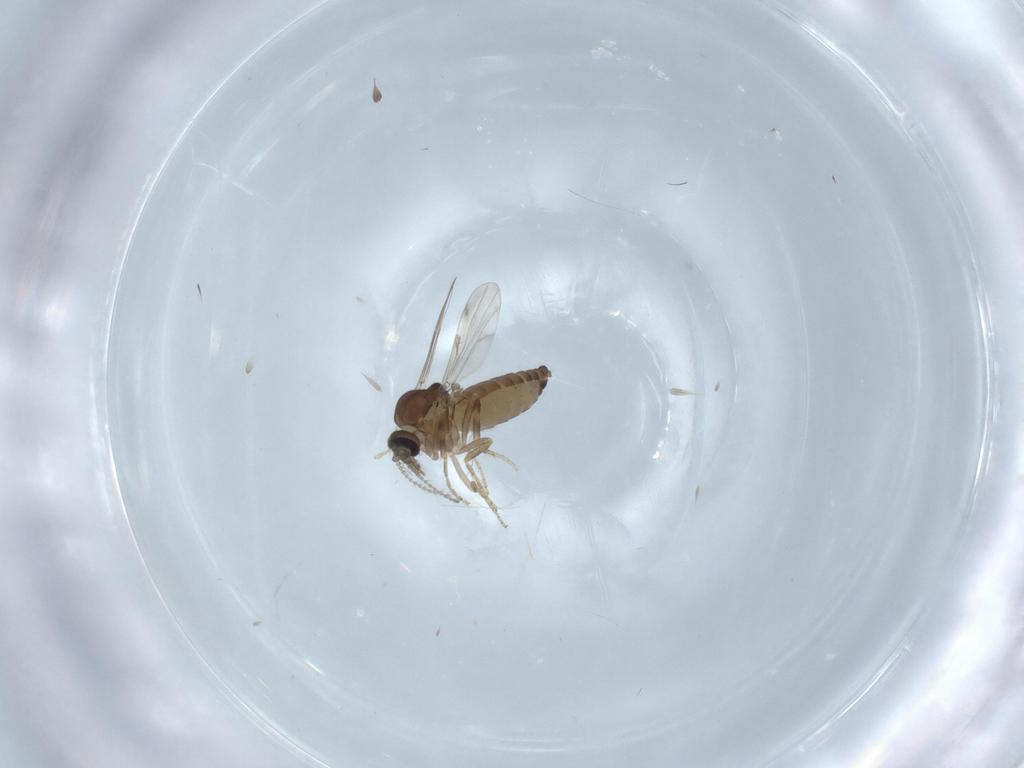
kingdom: Animalia
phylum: Arthropoda
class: Insecta
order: Diptera
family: Ceratopogonidae
